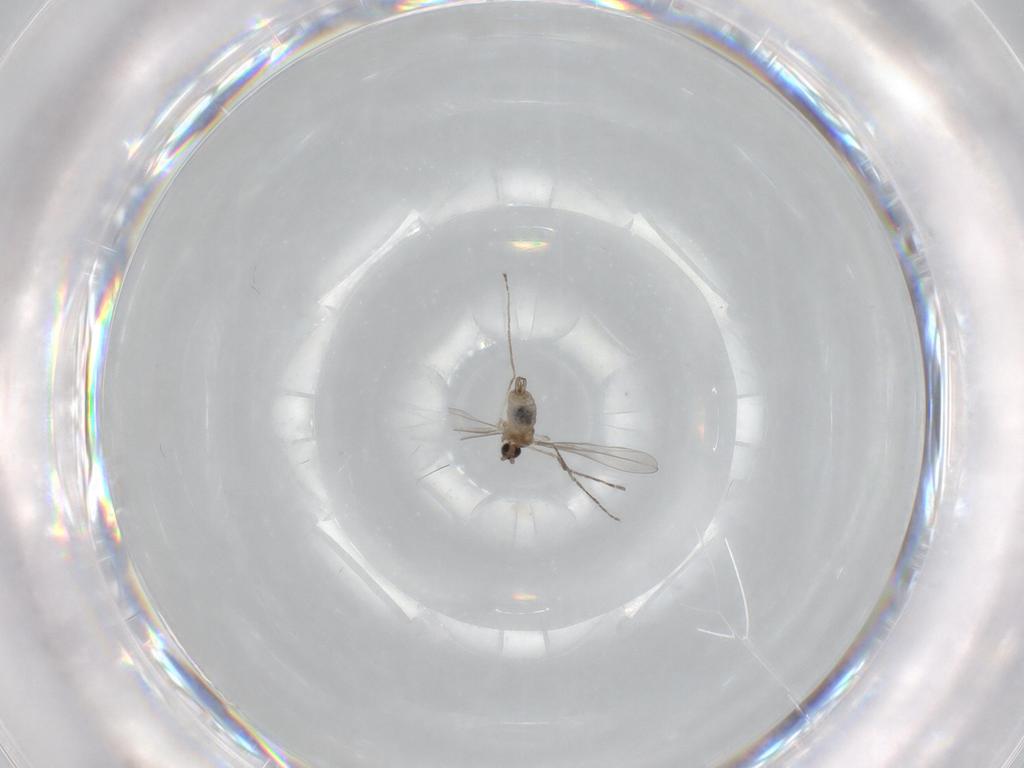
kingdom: Animalia
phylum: Arthropoda
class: Insecta
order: Diptera
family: Cecidomyiidae
